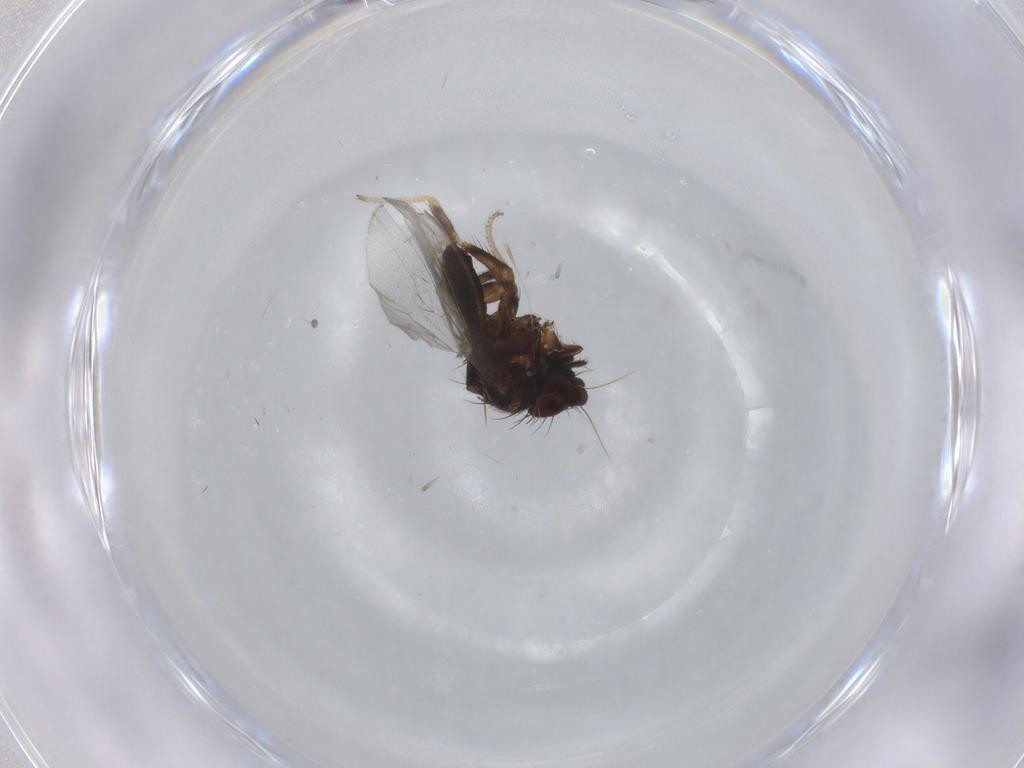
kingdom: Animalia
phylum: Arthropoda
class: Insecta
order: Diptera
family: Milichiidae
